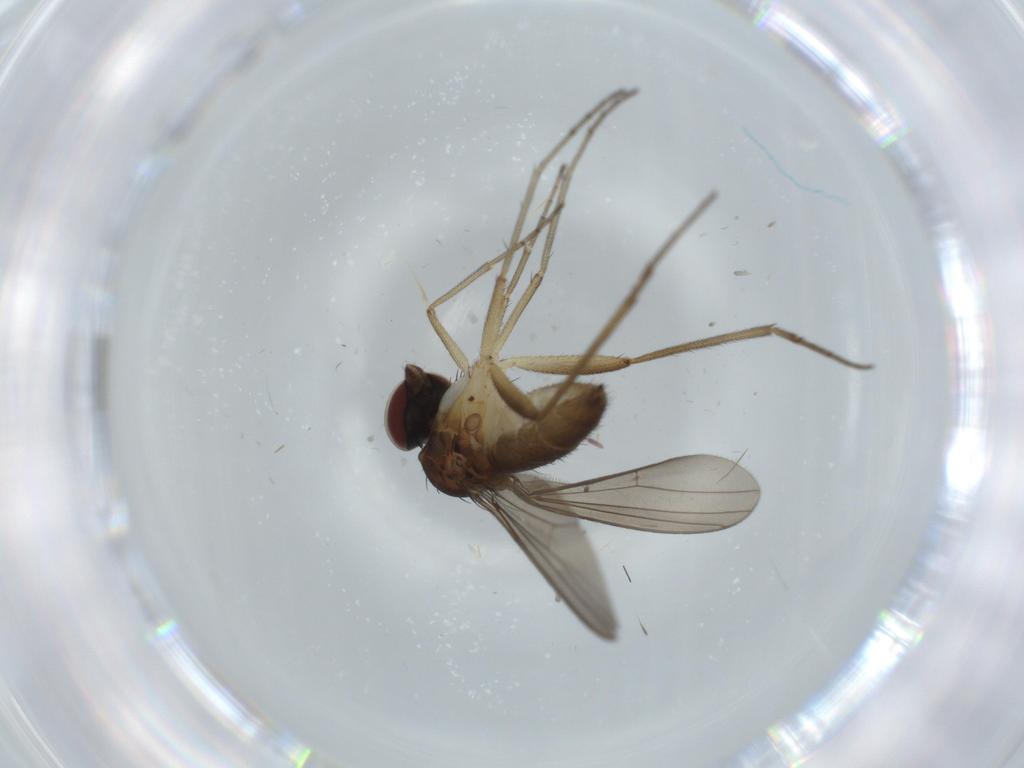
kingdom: Animalia
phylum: Arthropoda
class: Insecta
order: Diptera
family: Dolichopodidae
